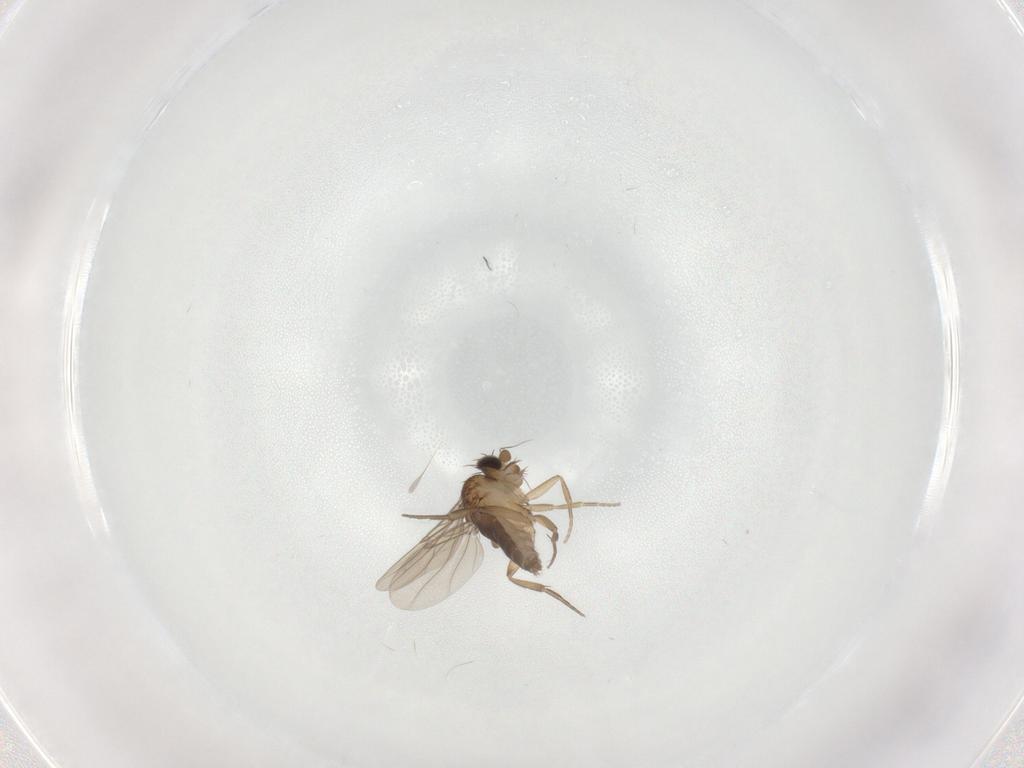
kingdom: Animalia
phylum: Arthropoda
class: Insecta
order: Diptera
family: Phoridae
